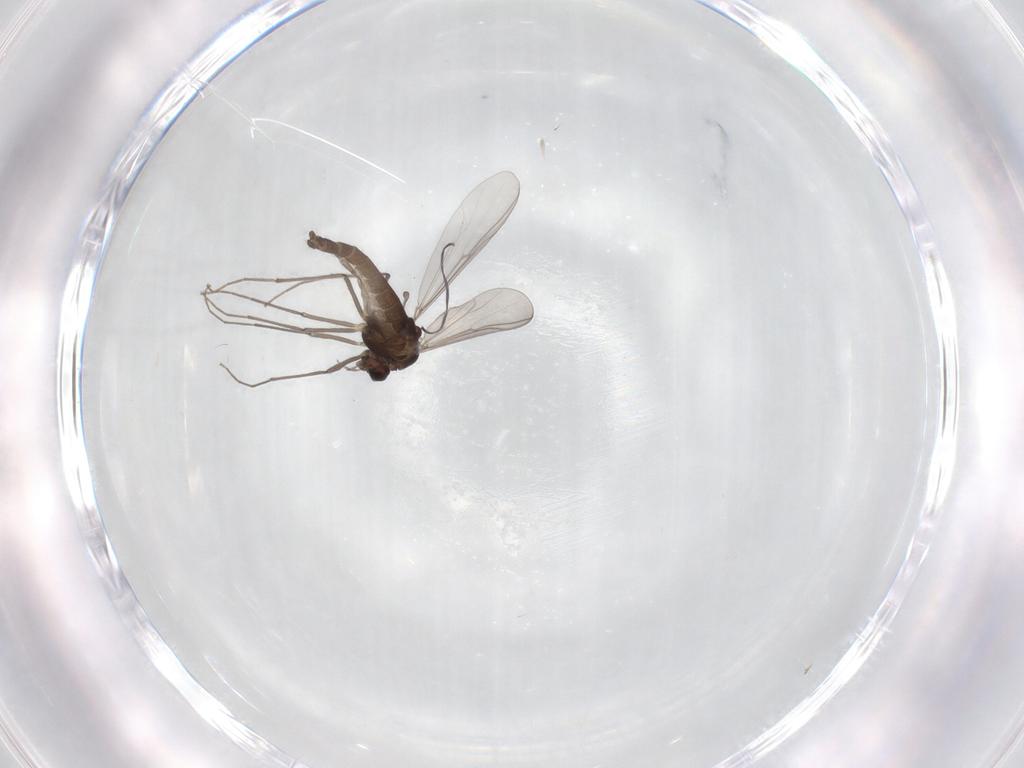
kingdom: Animalia
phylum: Arthropoda
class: Insecta
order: Diptera
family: Psychodidae
